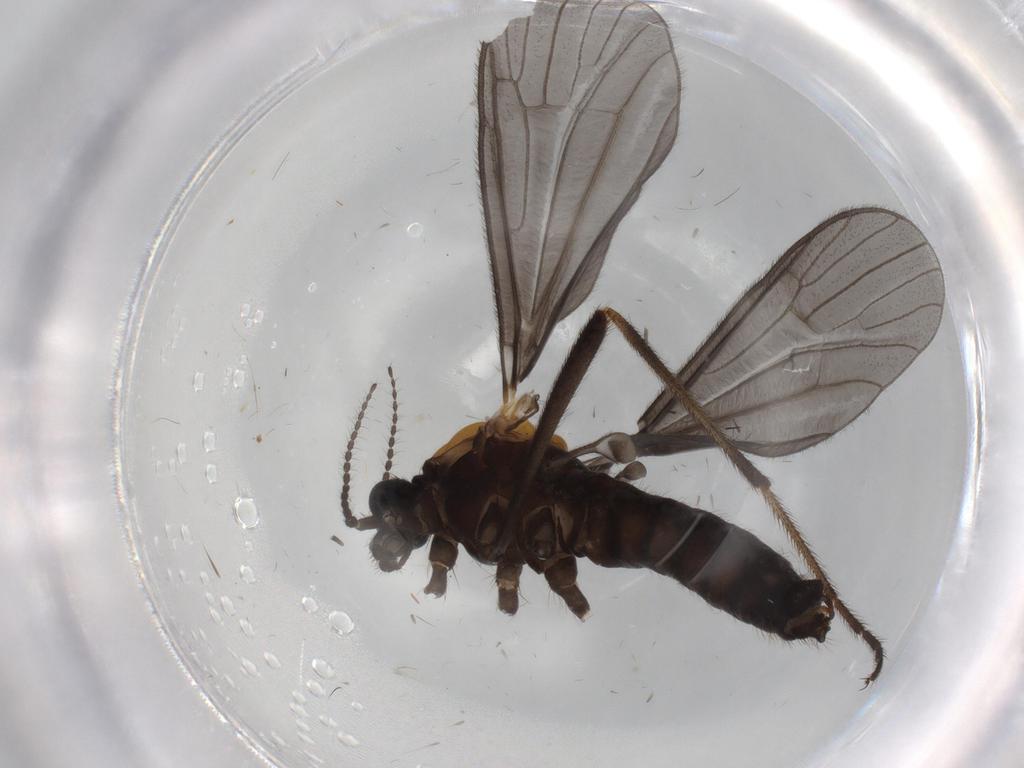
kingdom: Animalia
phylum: Arthropoda
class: Insecta
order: Diptera
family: Limoniidae
